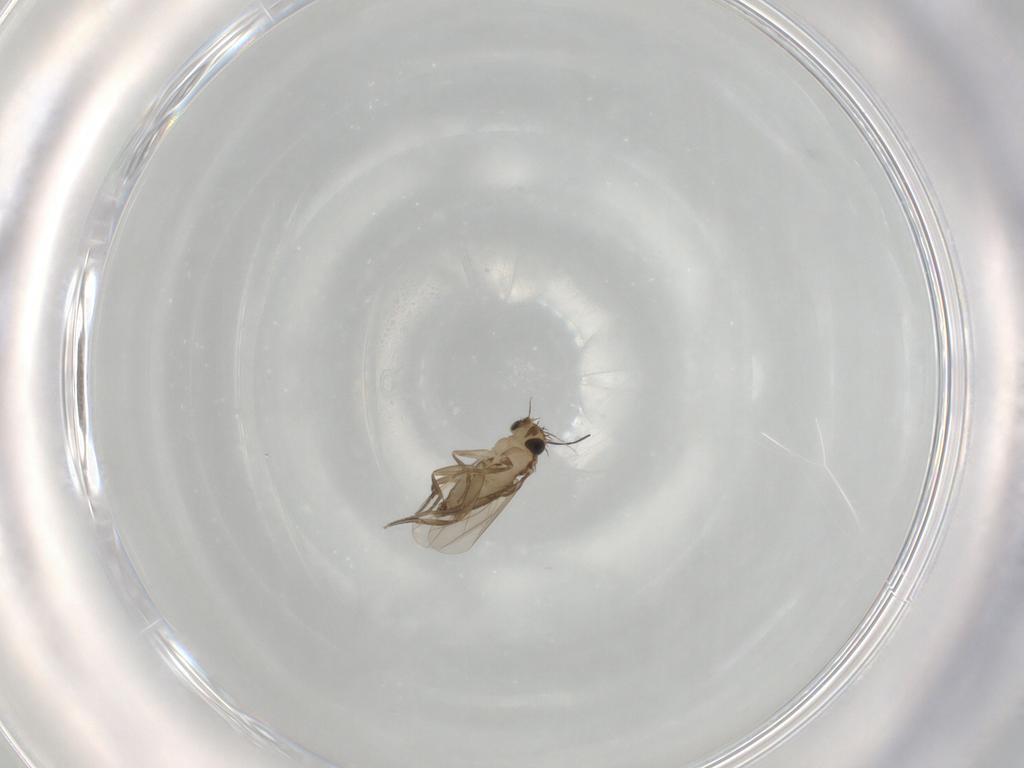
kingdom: Animalia
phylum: Arthropoda
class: Insecta
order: Diptera
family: Phoridae
